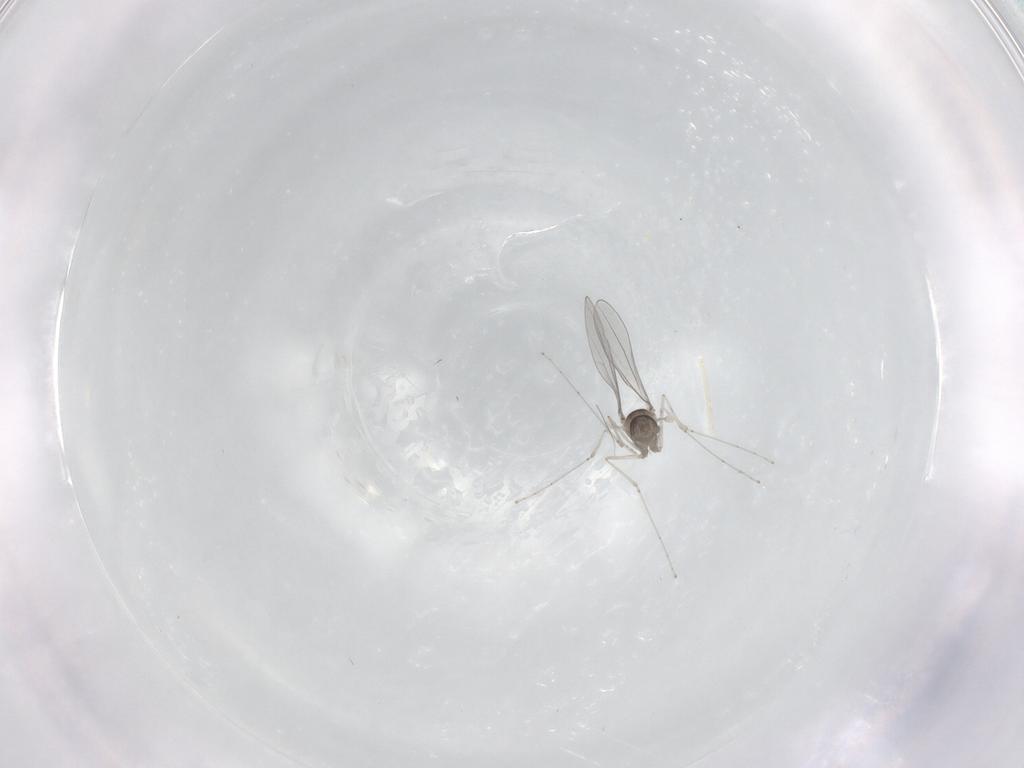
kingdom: Animalia
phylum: Arthropoda
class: Insecta
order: Diptera
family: Cecidomyiidae
